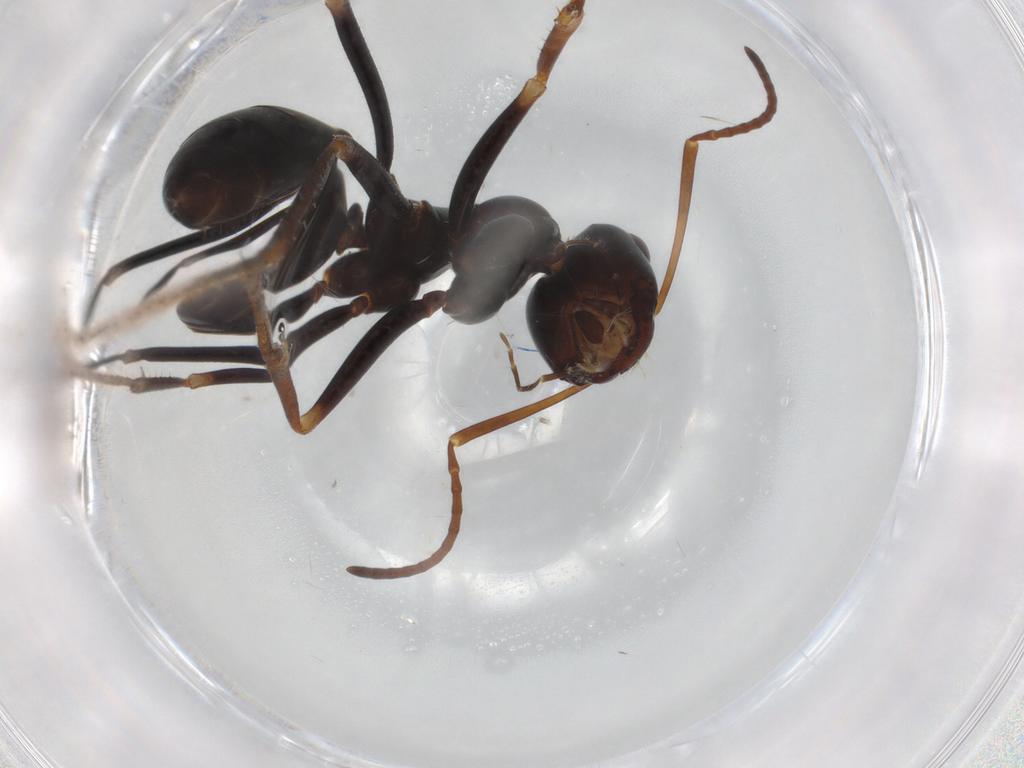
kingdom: Animalia
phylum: Arthropoda
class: Insecta
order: Hymenoptera
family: Formicidae
